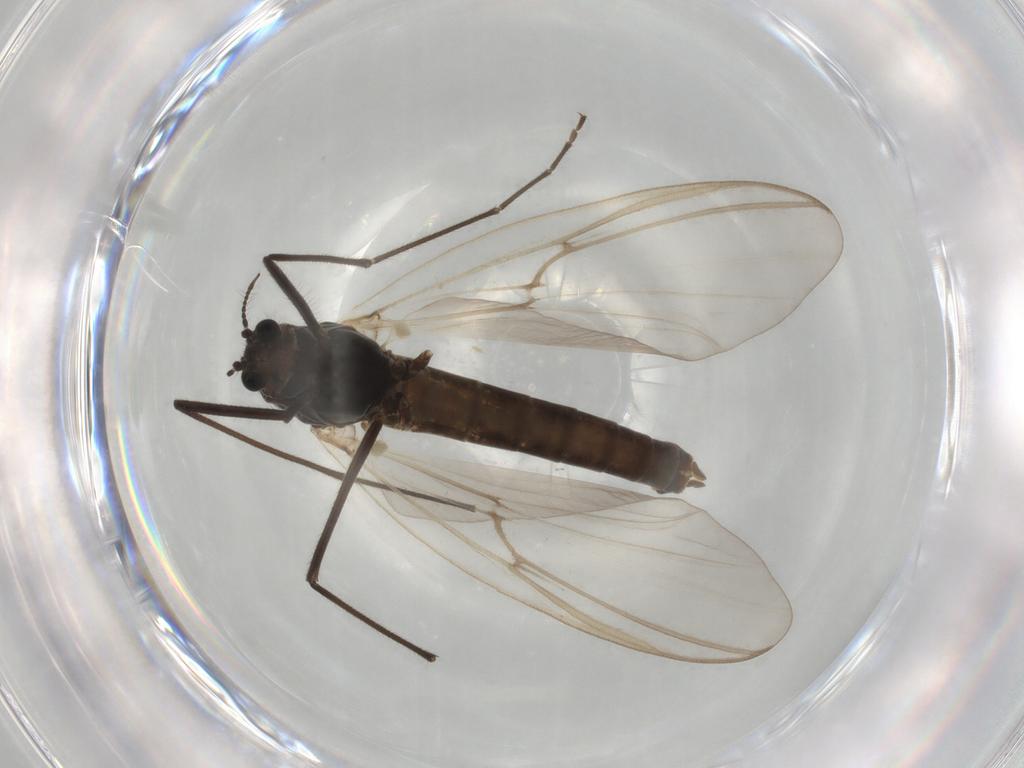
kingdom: Animalia
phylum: Arthropoda
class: Insecta
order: Diptera
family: Chironomidae
